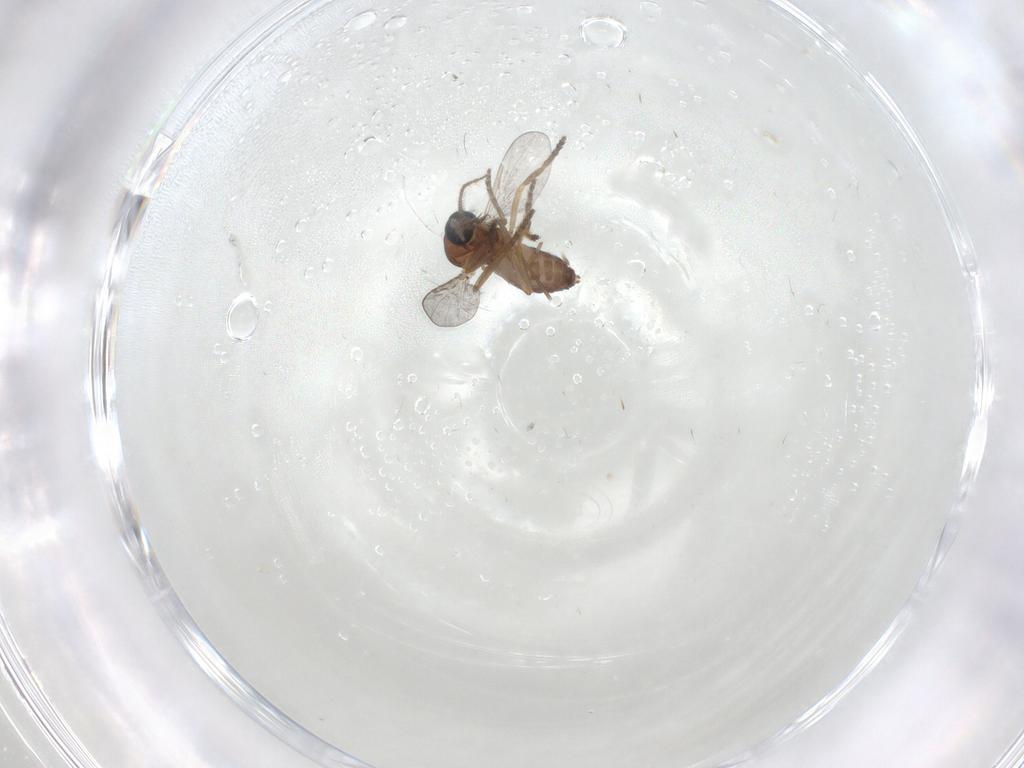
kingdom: Animalia
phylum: Arthropoda
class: Insecta
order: Diptera
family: Ceratopogonidae
